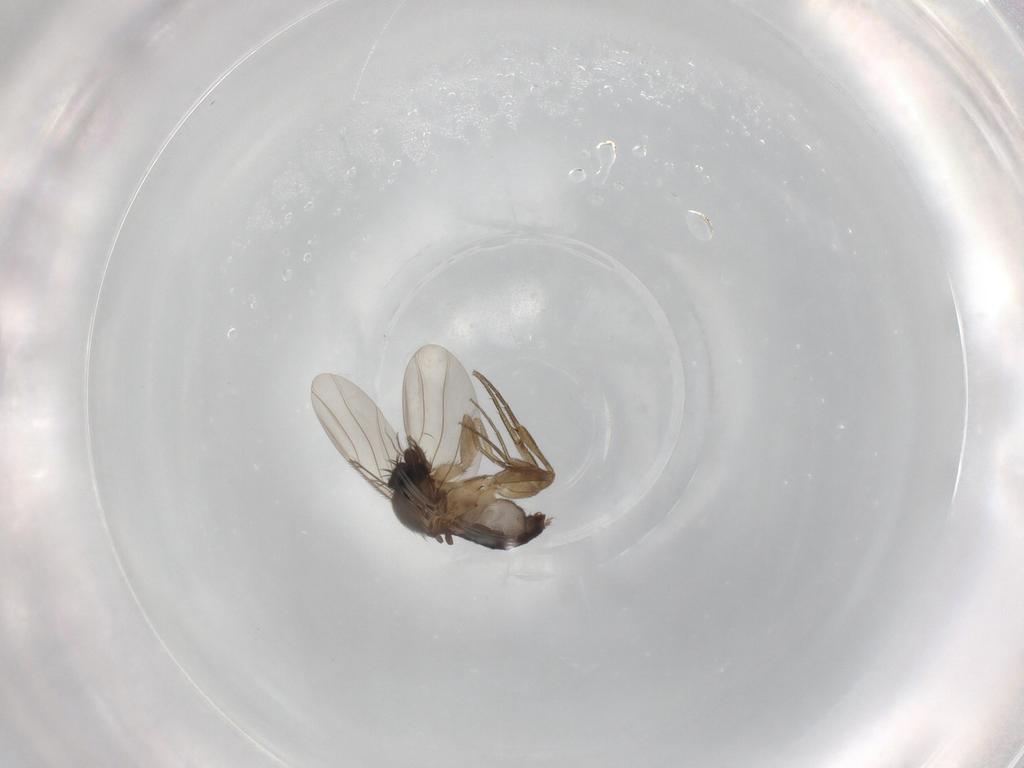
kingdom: Animalia
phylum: Arthropoda
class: Insecta
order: Diptera
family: Phoridae
